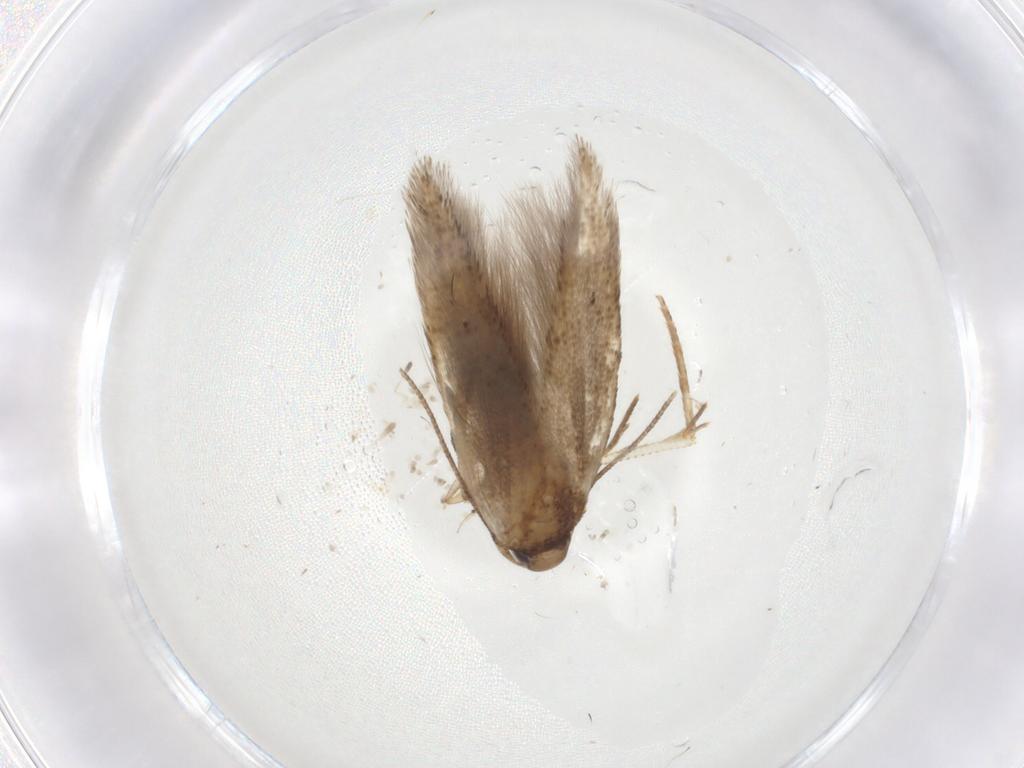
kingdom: Animalia
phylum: Arthropoda
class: Insecta
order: Lepidoptera
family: Cosmopterigidae
